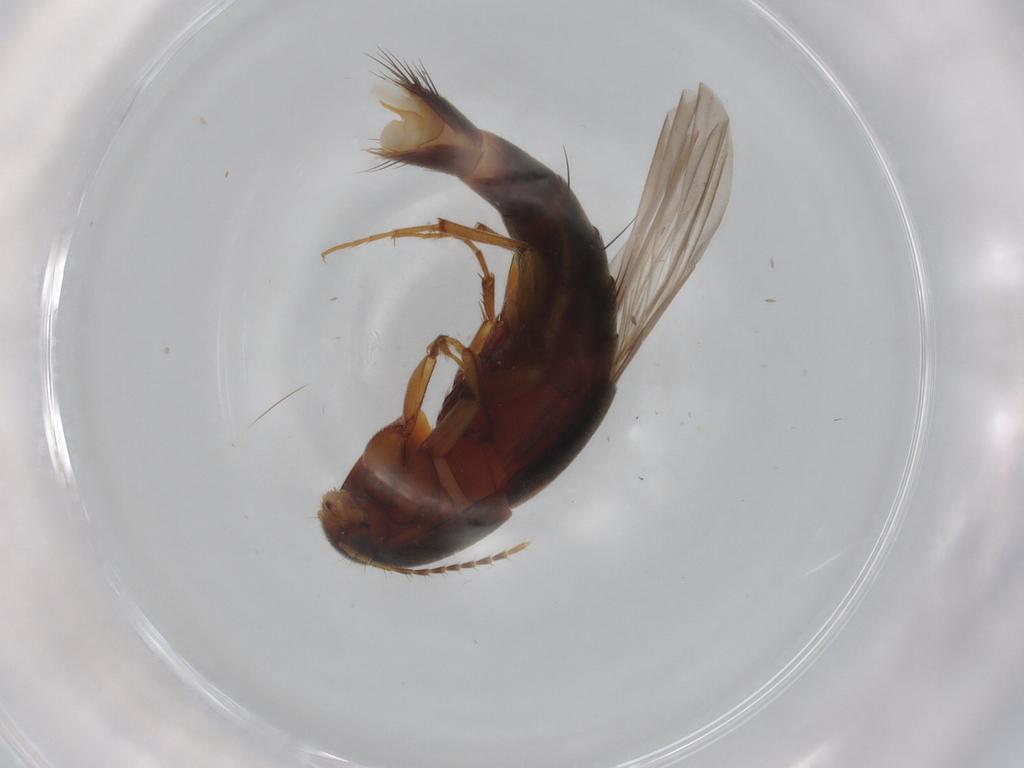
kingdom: Animalia
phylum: Arthropoda
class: Insecta
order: Coleoptera
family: Staphylinidae
